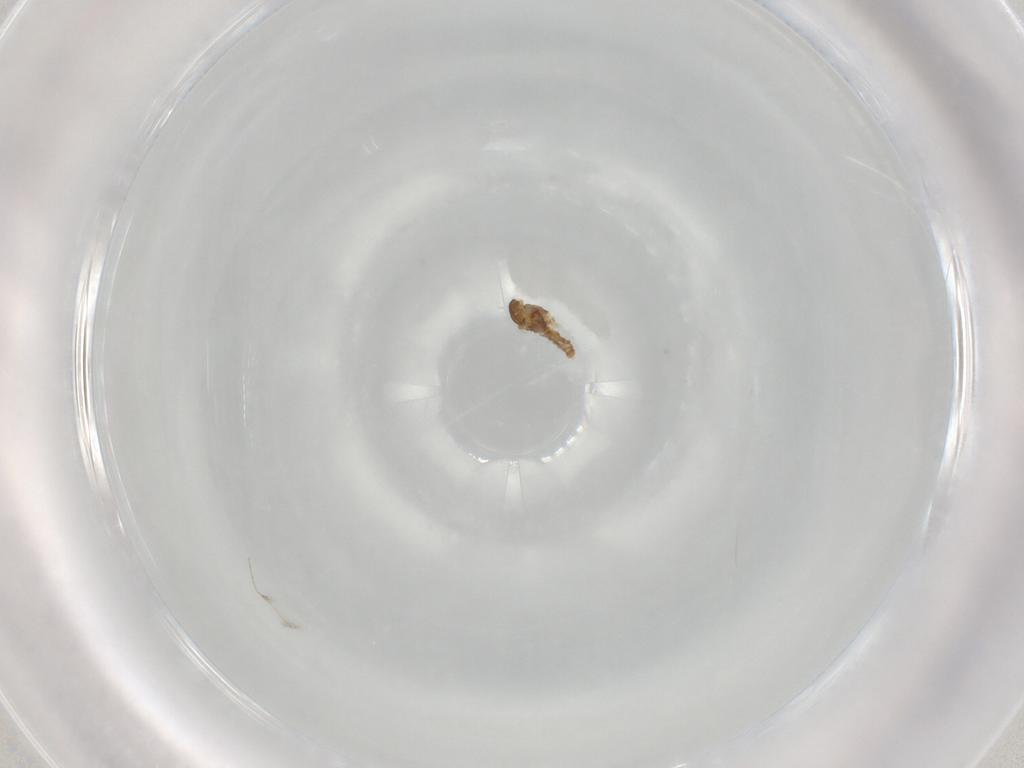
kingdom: Animalia
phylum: Arthropoda
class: Insecta
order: Diptera
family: Cecidomyiidae
